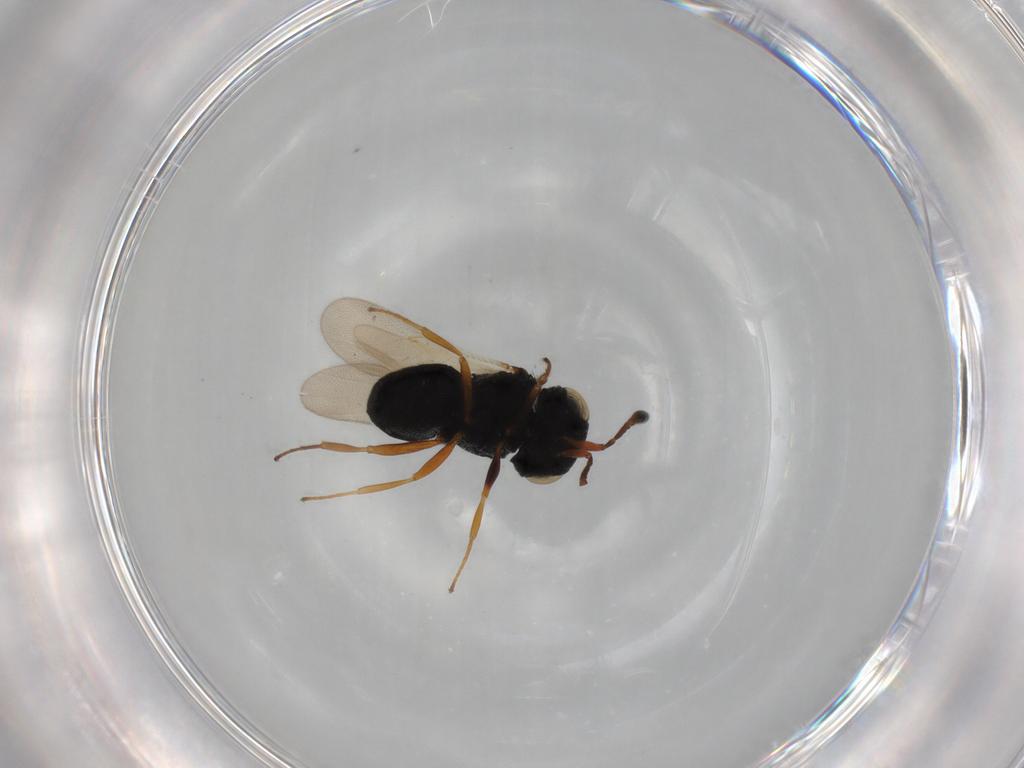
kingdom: Animalia
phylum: Arthropoda
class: Insecta
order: Hymenoptera
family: Scelionidae
